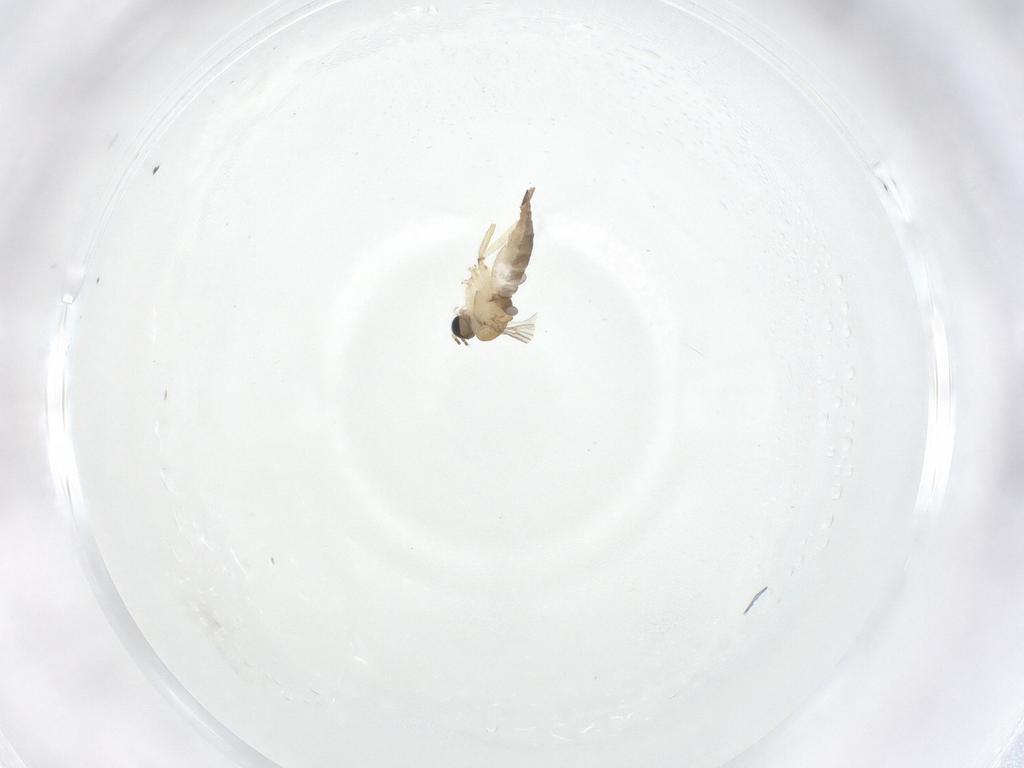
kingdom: Animalia
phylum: Arthropoda
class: Insecta
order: Diptera
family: Sciaridae
